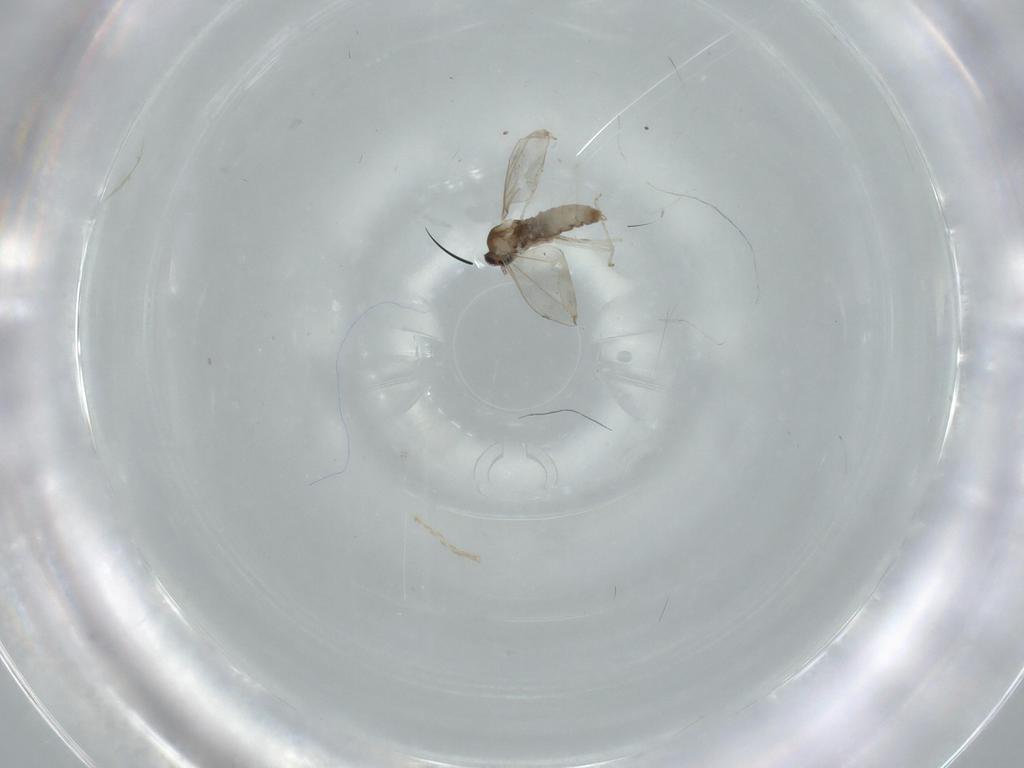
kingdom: Animalia
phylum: Arthropoda
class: Insecta
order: Diptera
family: Cecidomyiidae
